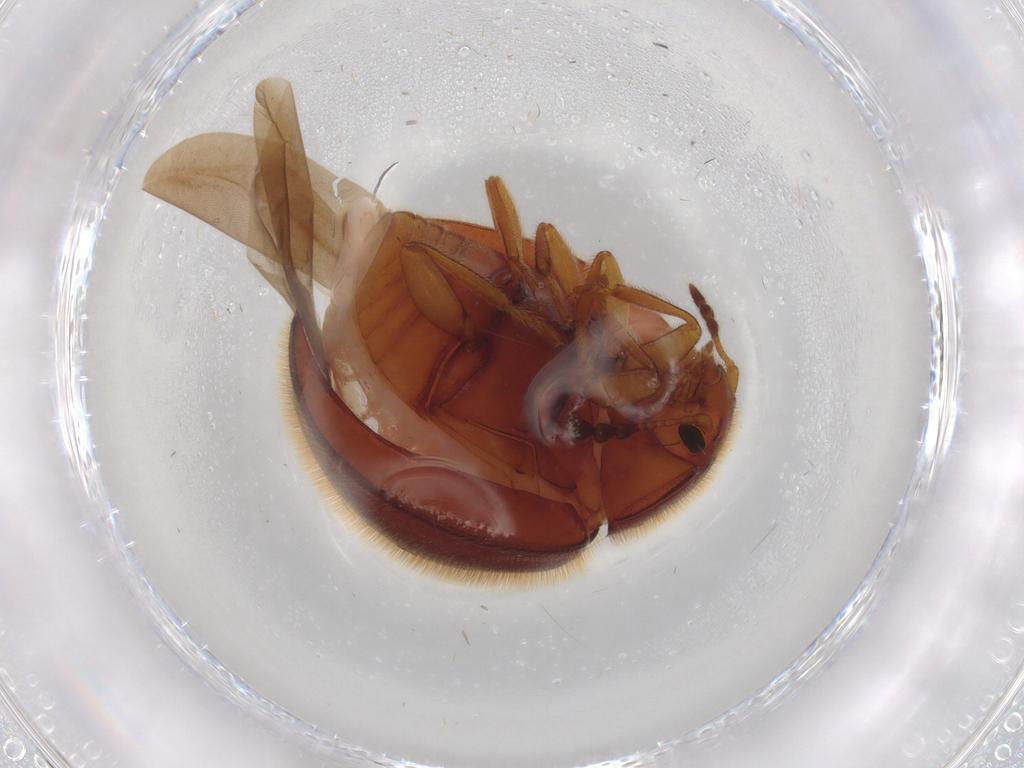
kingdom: Animalia
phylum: Arthropoda
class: Insecta
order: Coleoptera
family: Anamorphidae
